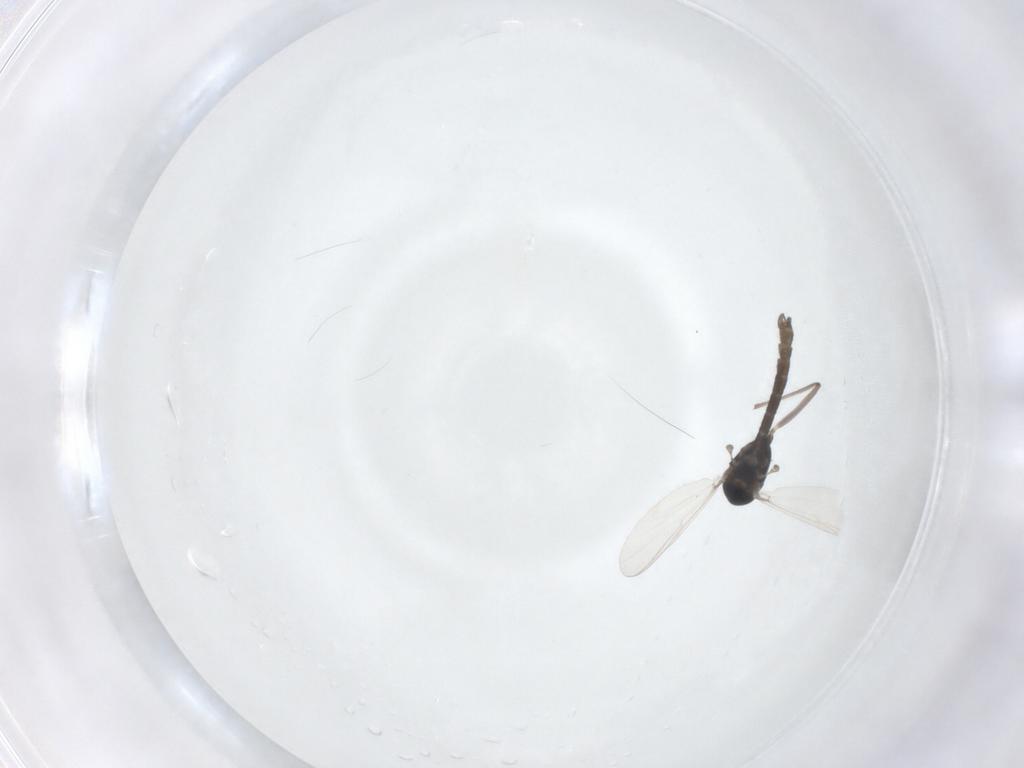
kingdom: Animalia
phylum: Arthropoda
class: Insecta
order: Diptera
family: Chironomidae
